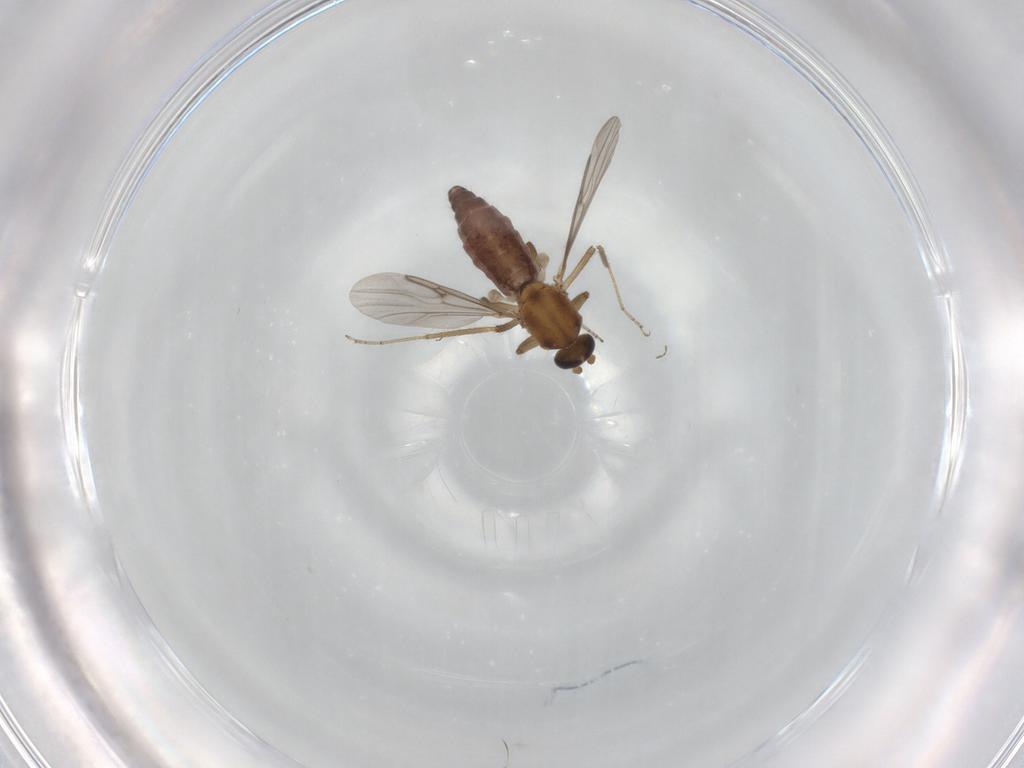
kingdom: Animalia
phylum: Arthropoda
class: Insecta
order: Diptera
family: Ceratopogonidae
